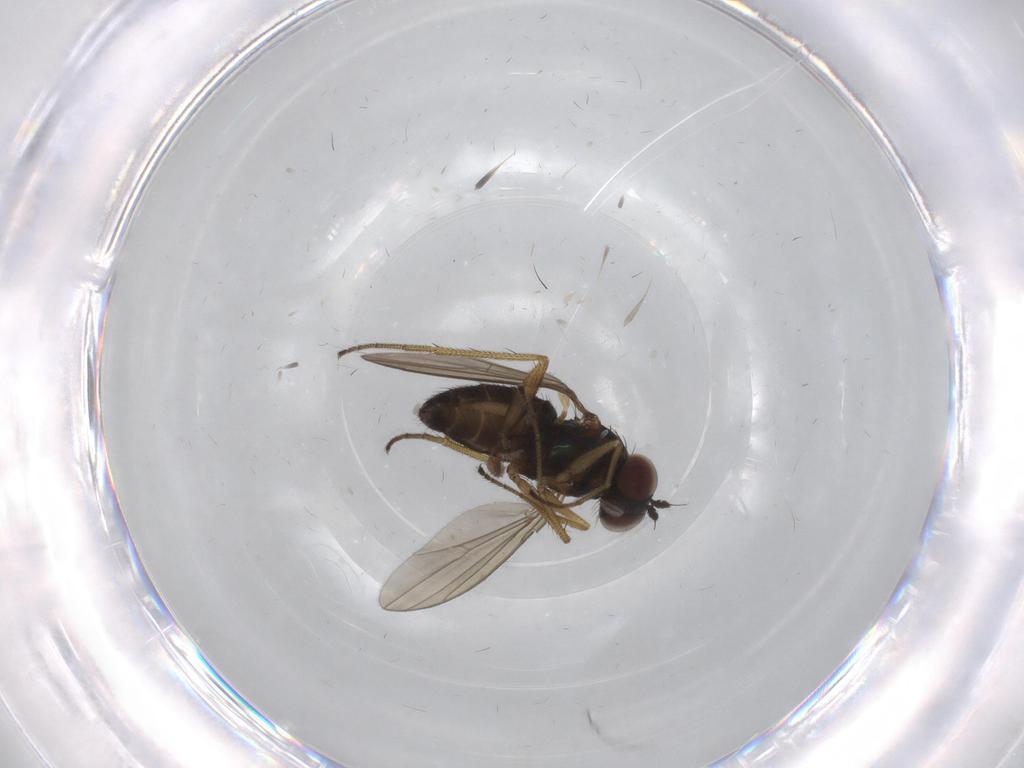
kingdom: Animalia
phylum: Arthropoda
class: Insecta
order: Diptera
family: Dolichopodidae
